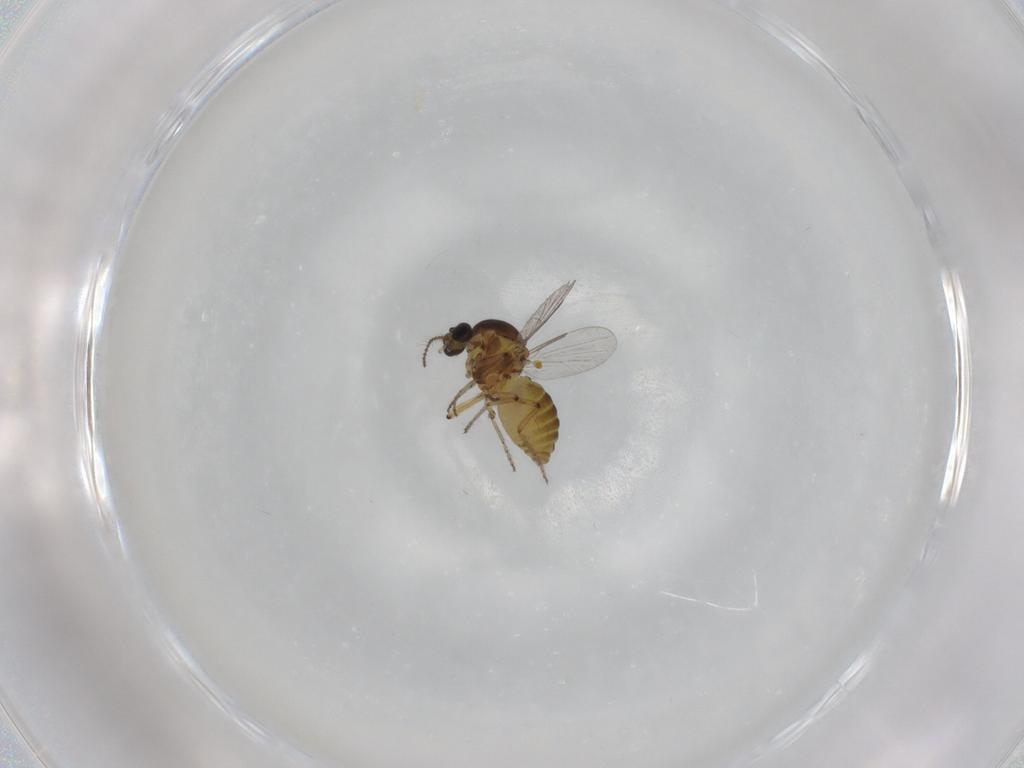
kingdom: Animalia
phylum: Arthropoda
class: Insecta
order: Diptera
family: Ceratopogonidae
